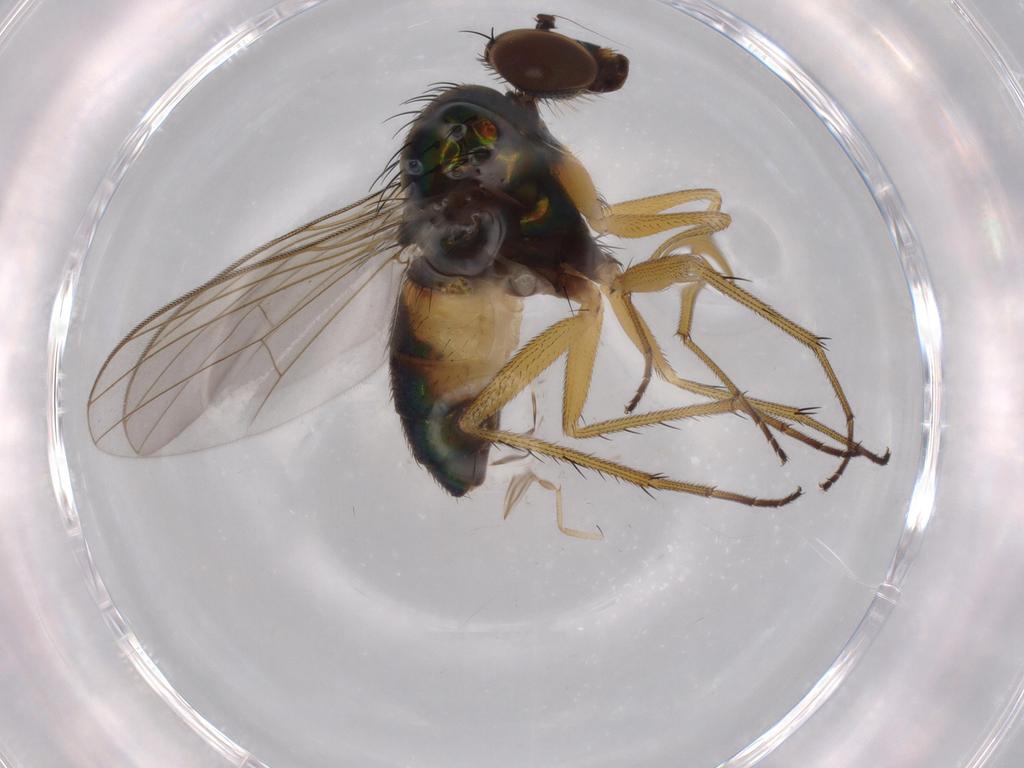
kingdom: Animalia
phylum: Arthropoda
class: Insecta
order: Diptera
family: Scatopsidae
